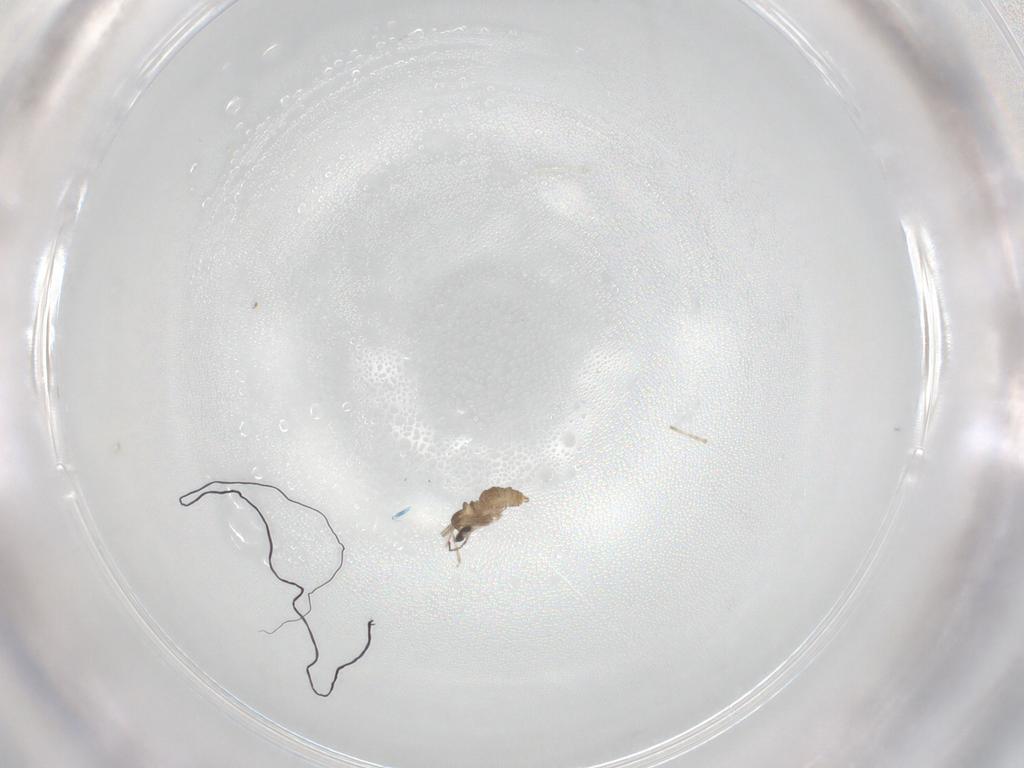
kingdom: Animalia
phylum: Arthropoda
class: Insecta
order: Diptera
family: Cecidomyiidae
